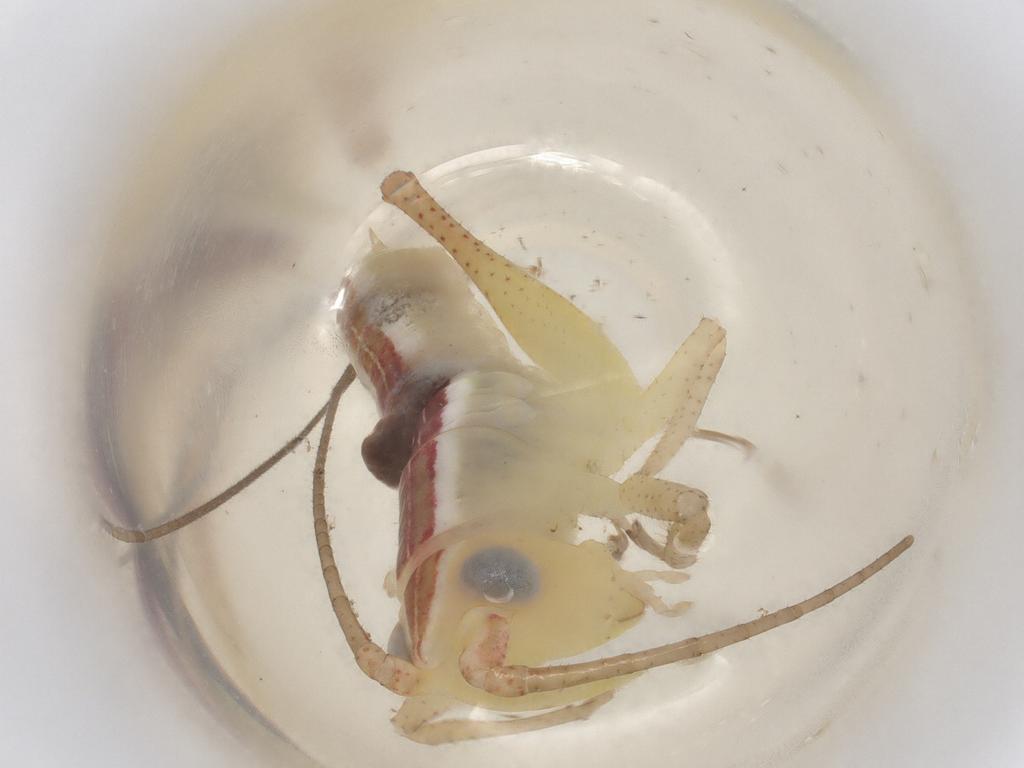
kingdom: Animalia
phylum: Arthropoda
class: Insecta
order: Orthoptera
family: Tettigoniidae
